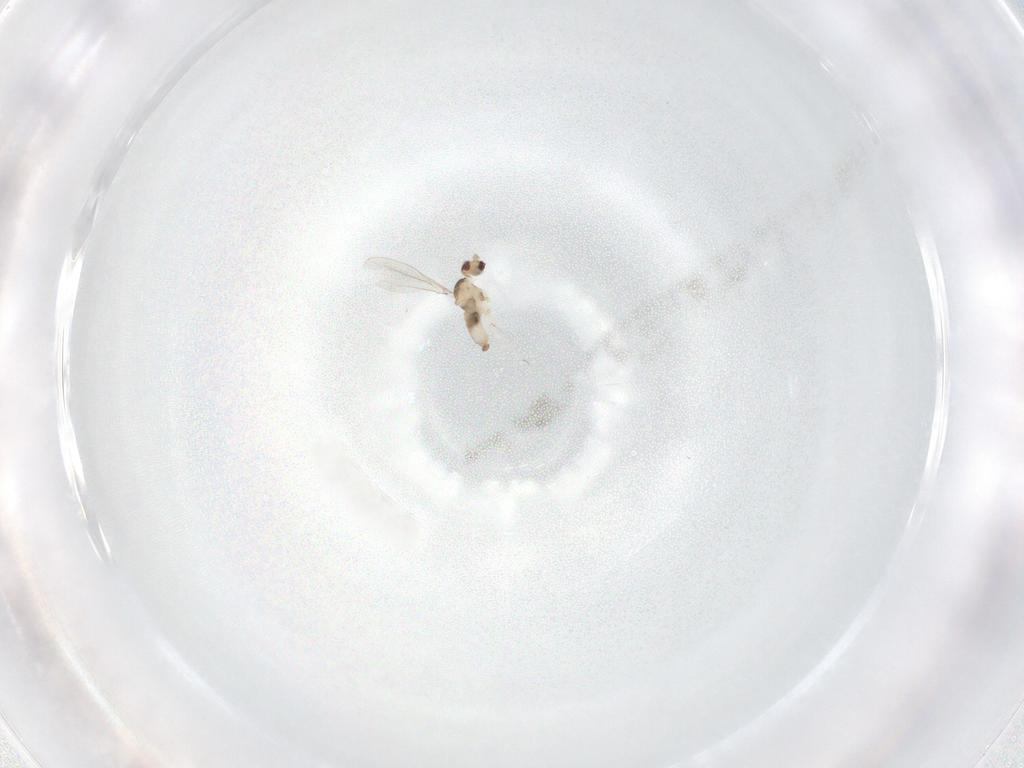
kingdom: Animalia
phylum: Arthropoda
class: Insecta
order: Diptera
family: Cecidomyiidae
